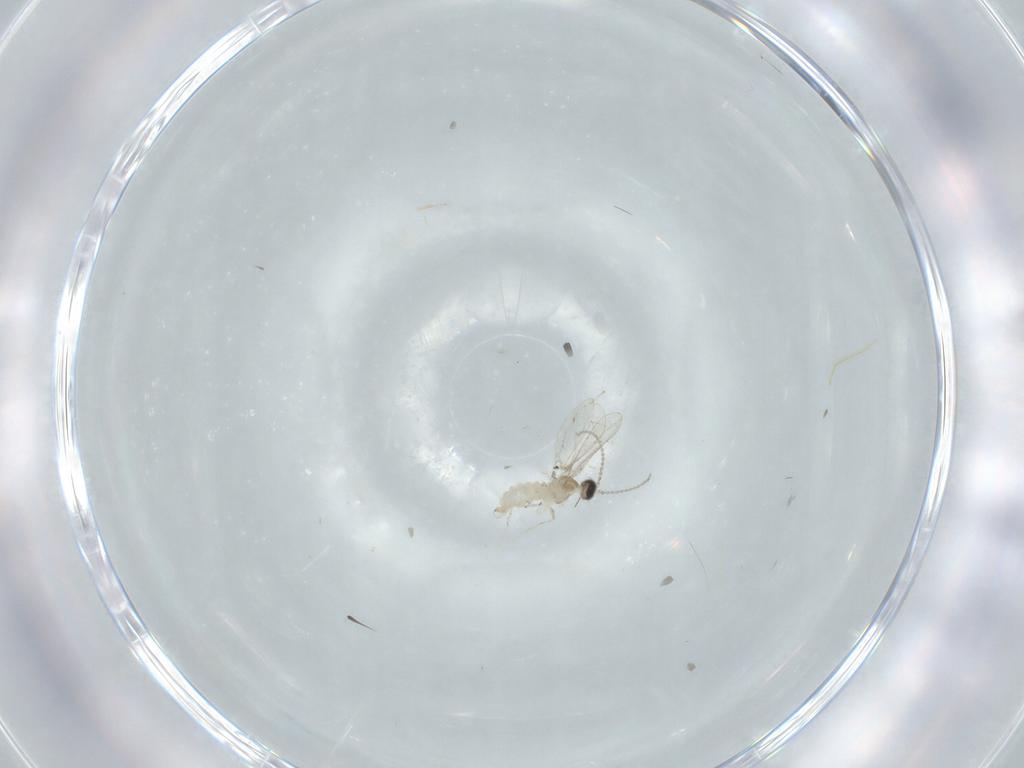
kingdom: Animalia
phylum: Arthropoda
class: Insecta
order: Diptera
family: Cecidomyiidae
